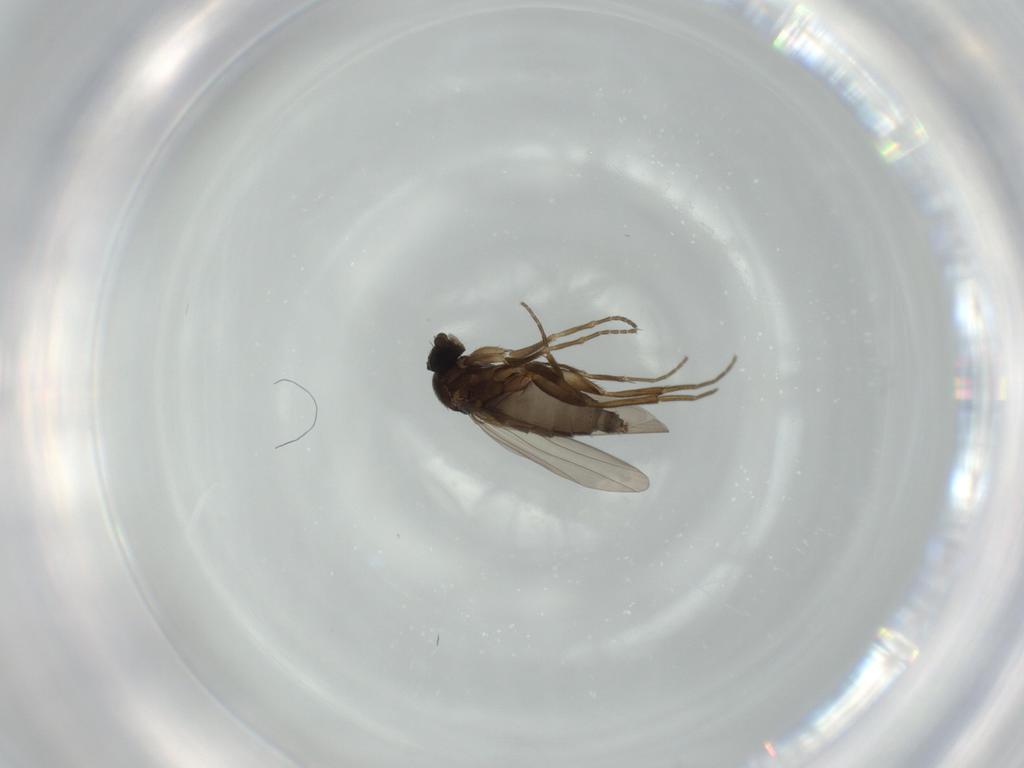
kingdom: Animalia
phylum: Arthropoda
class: Insecta
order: Diptera
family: Phoridae
